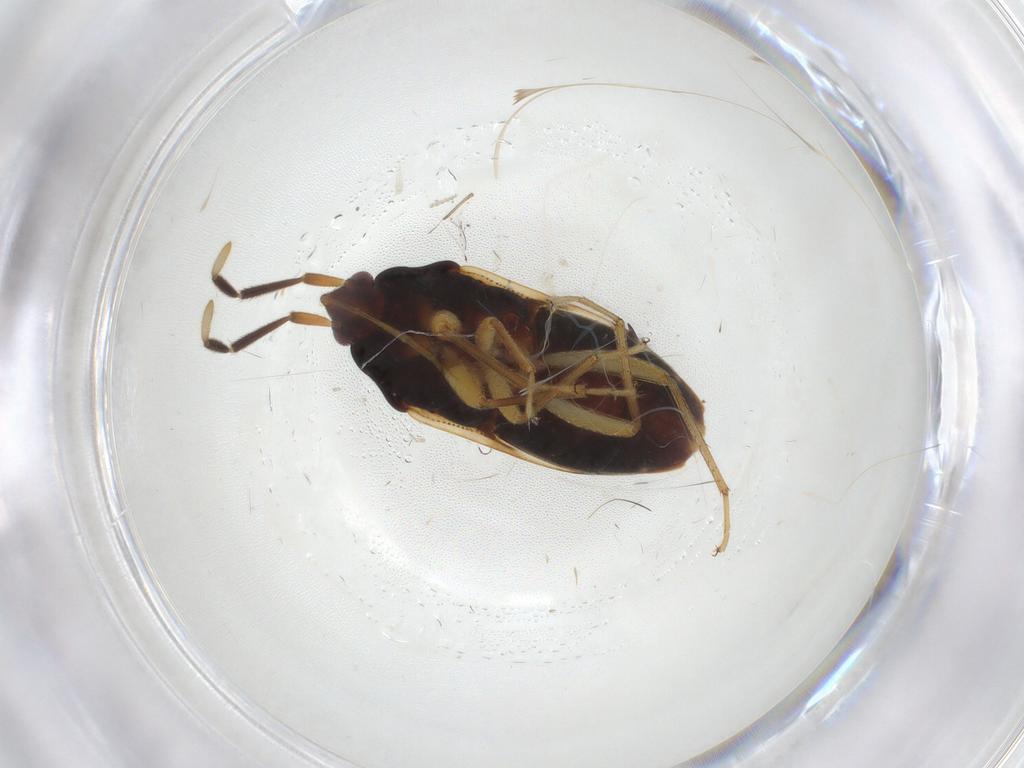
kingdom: Animalia
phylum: Arthropoda
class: Insecta
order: Hemiptera
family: Rhyparochromidae
